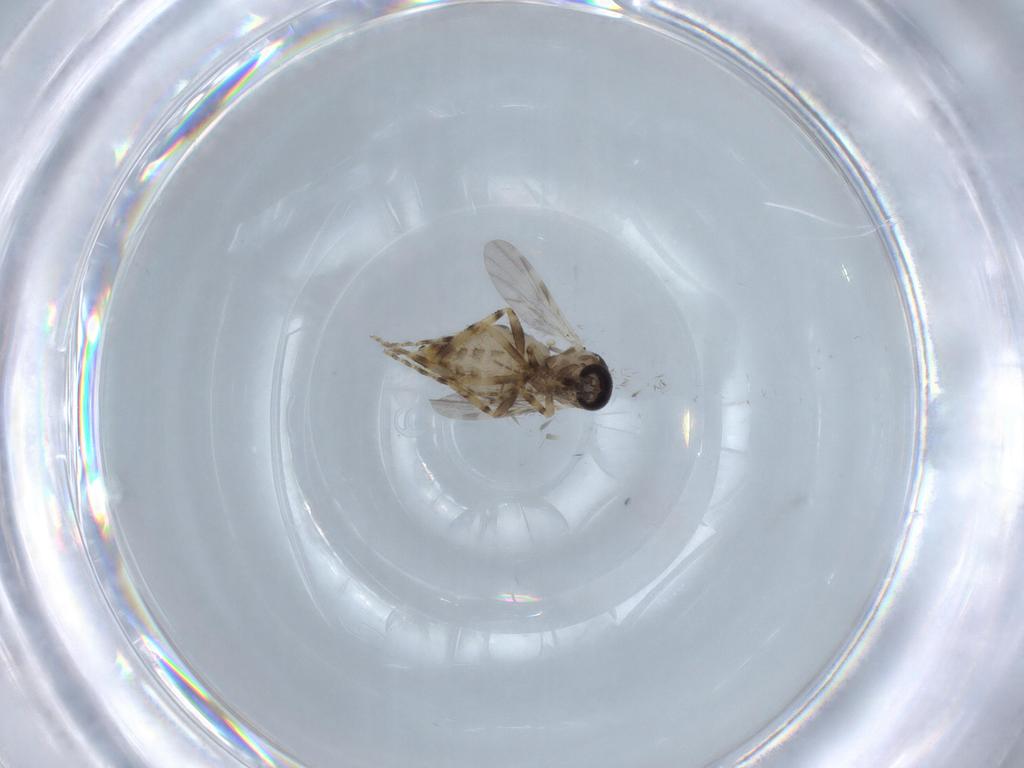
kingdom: Animalia
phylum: Arthropoda
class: Insecta
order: Diptera
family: Ceratopogonidae
